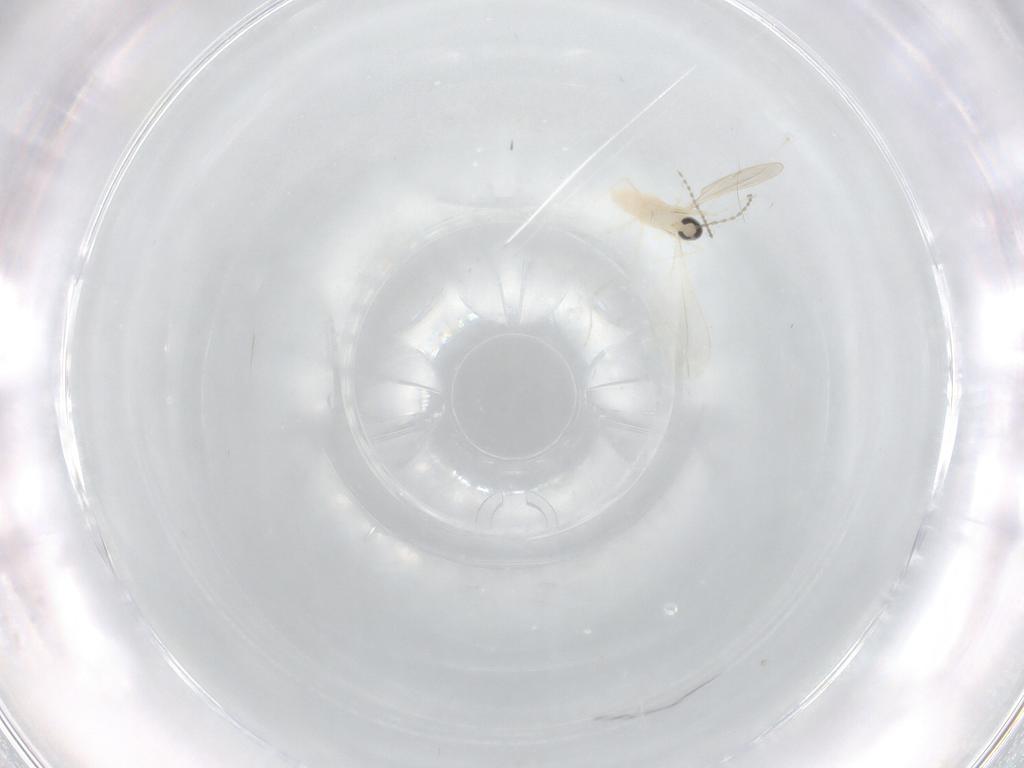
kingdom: Animalia
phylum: Arthropoda
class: Insecta
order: Diptera
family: Cecidomyiidae
